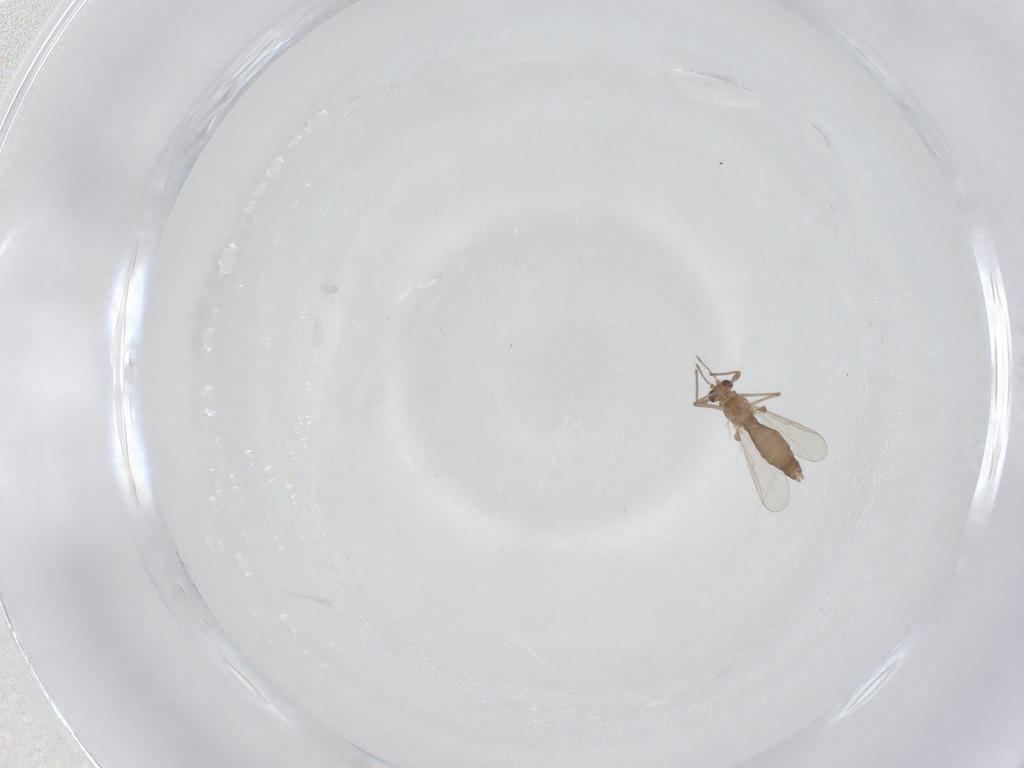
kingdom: Animalia
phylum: Arthropoda
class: Insecta
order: Diptera
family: Chironomidae
